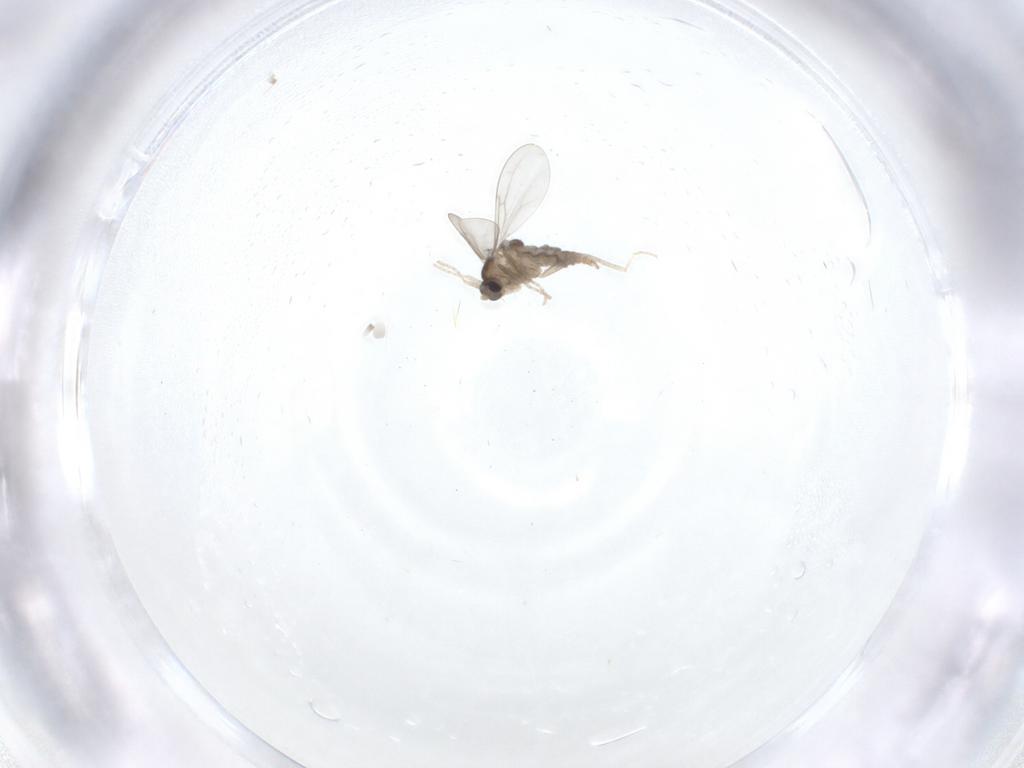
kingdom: Animalia
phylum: Arthropoda
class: Insecta
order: Diptera
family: Cecidomyiidae
